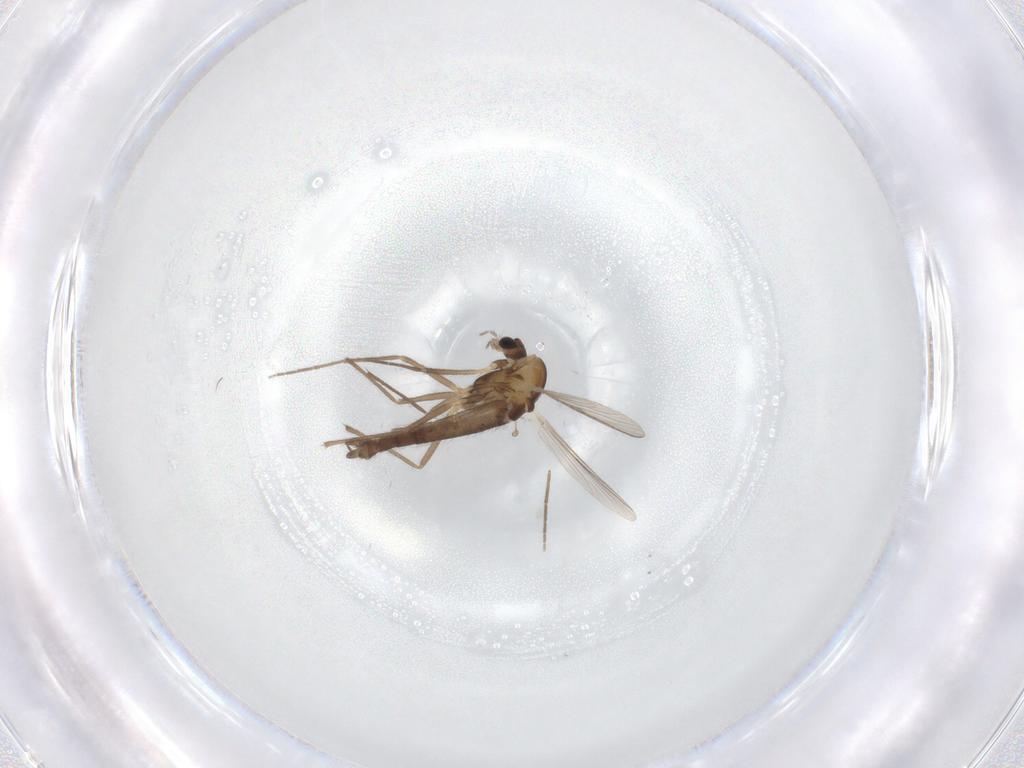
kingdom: Animalia
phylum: Arthropoda
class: Insecta
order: Diptera
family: Chironomidae
